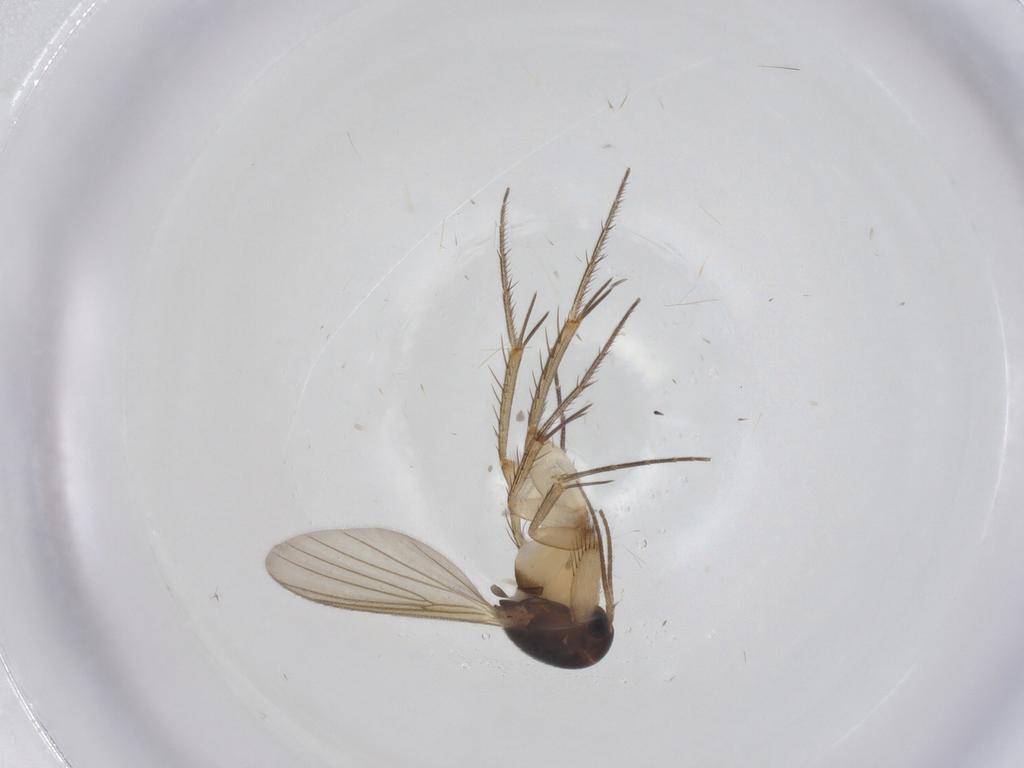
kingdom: Animalia
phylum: Arthropoda
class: Insecta
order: Diptera
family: Mycetophilidae
